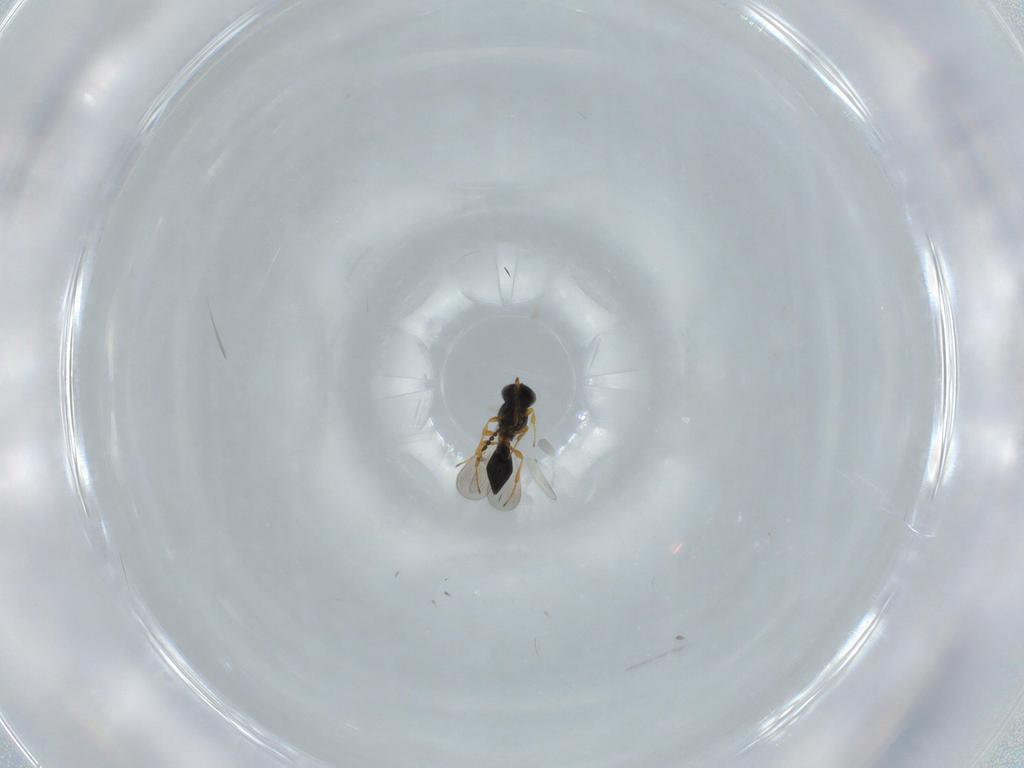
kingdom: Animalia
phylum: Arthropoda
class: Insecta
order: Hymenoptera
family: Platygastridae
